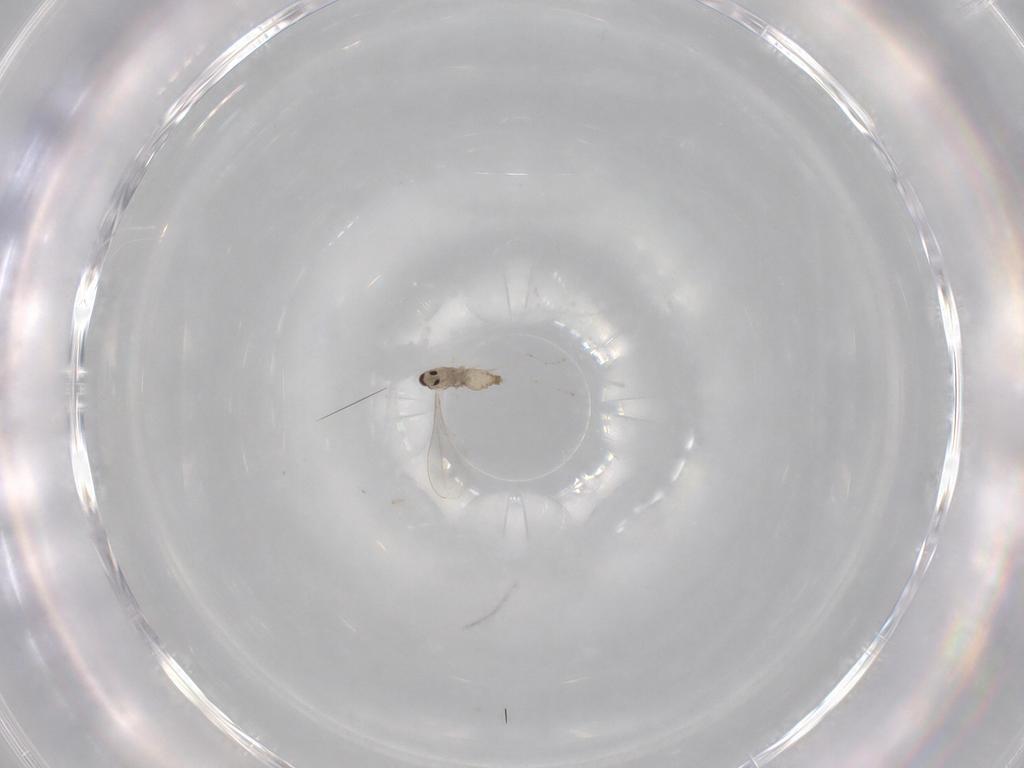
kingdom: Animalia
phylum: Arthropoda
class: Insecta
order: Diptera
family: Cecidomyiidae
